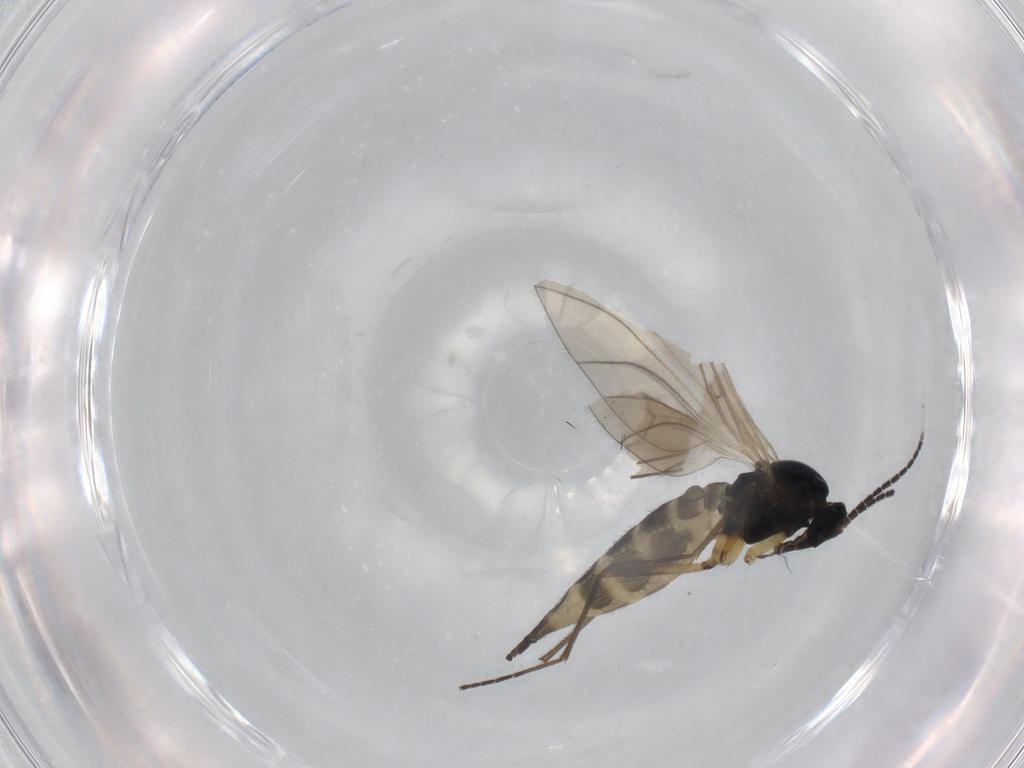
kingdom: Animalia
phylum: Arthropoda
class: Insecta
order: Diptera
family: Sciaridae
